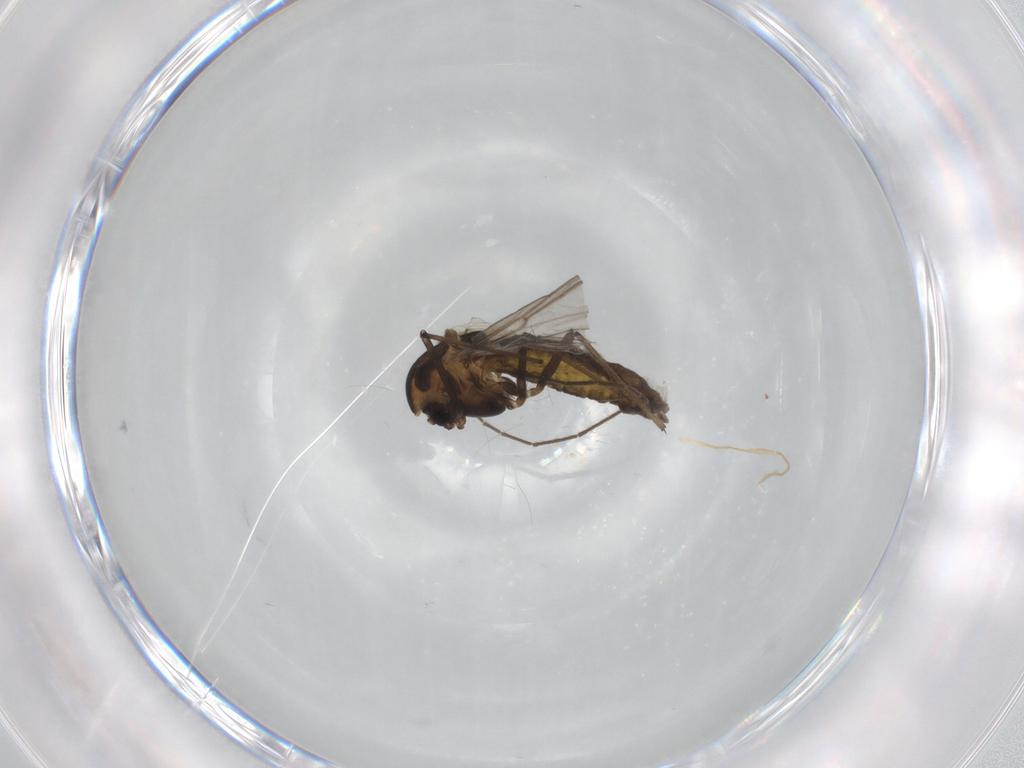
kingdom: Animalia
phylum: Arthropoda
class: Insecta
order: Diptera
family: Chironomidae
